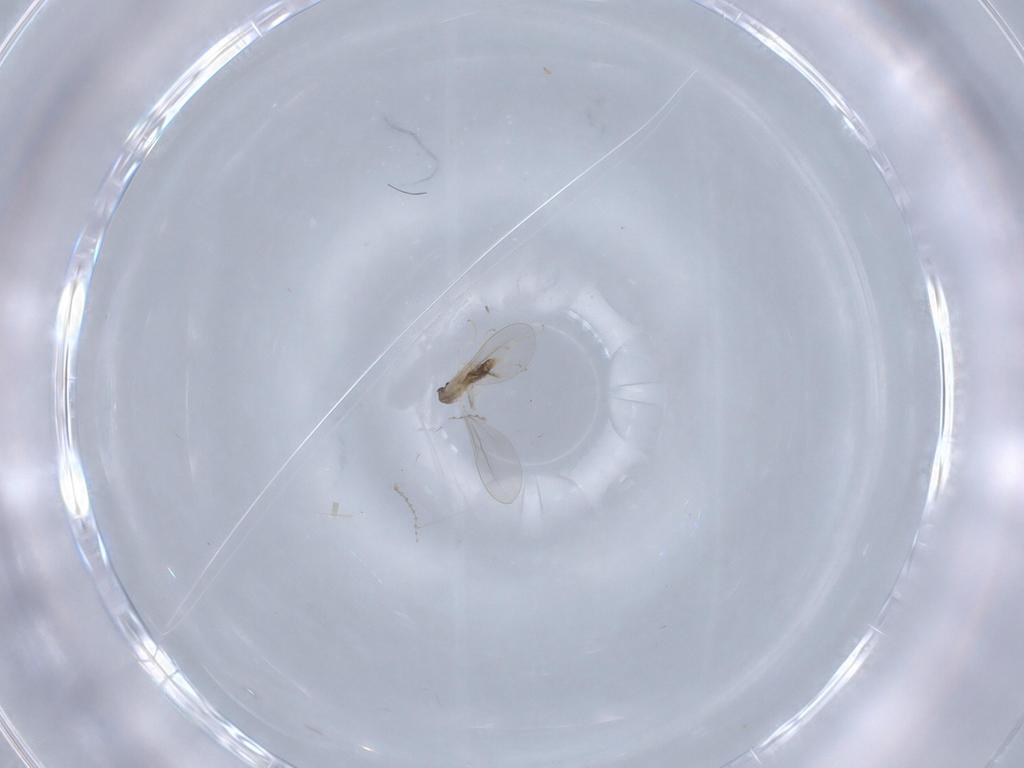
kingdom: Animalia
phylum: Arthropoda
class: Insecta
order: Diptera
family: Cecidomyiidae
